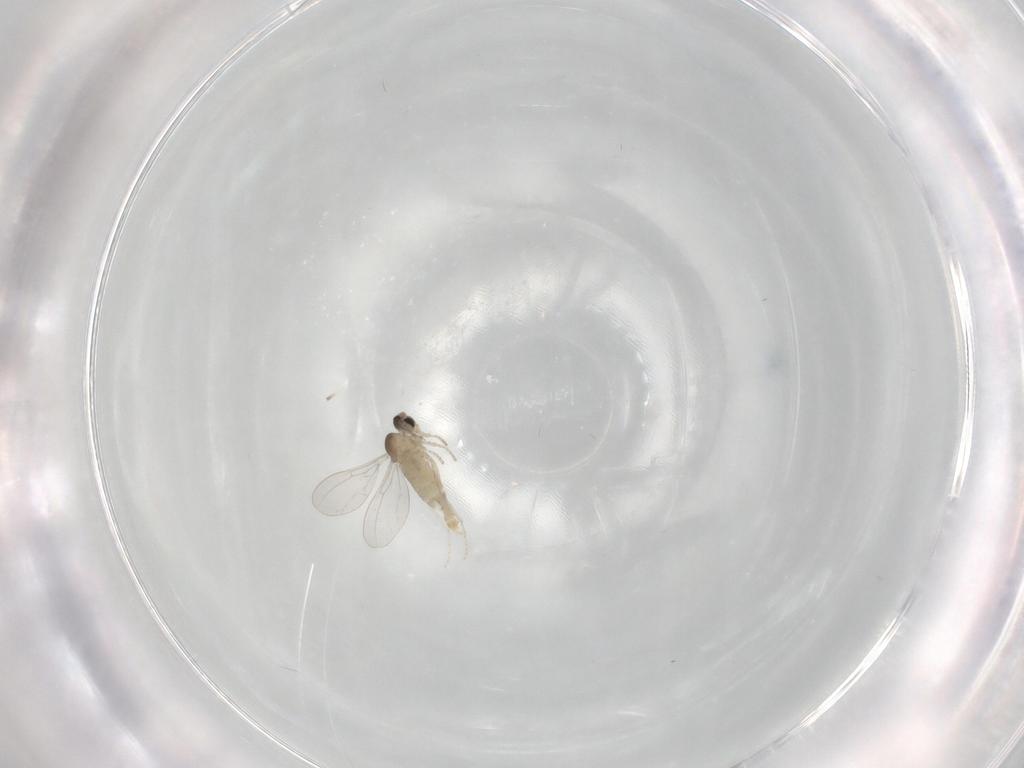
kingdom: Animalia
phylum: Arthropoda
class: Insecta
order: Diptera
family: Cecidomyiidae
